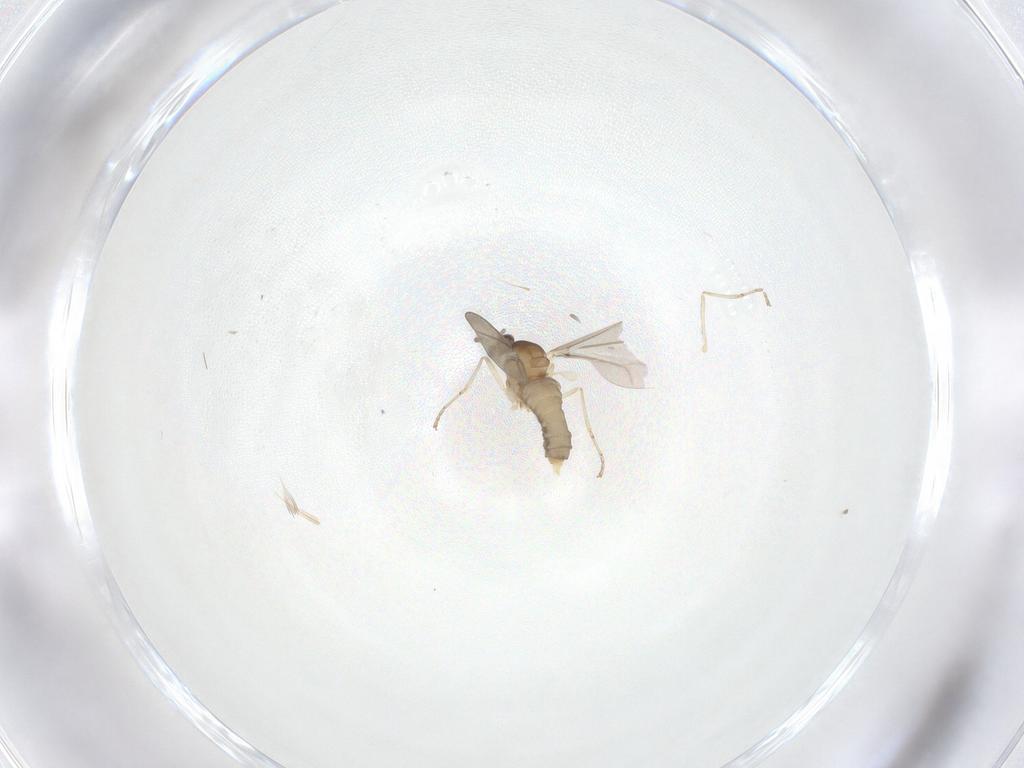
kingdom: Animalia
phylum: Arthropoda
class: Insecta
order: Diptera
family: Cecidomyiidae
